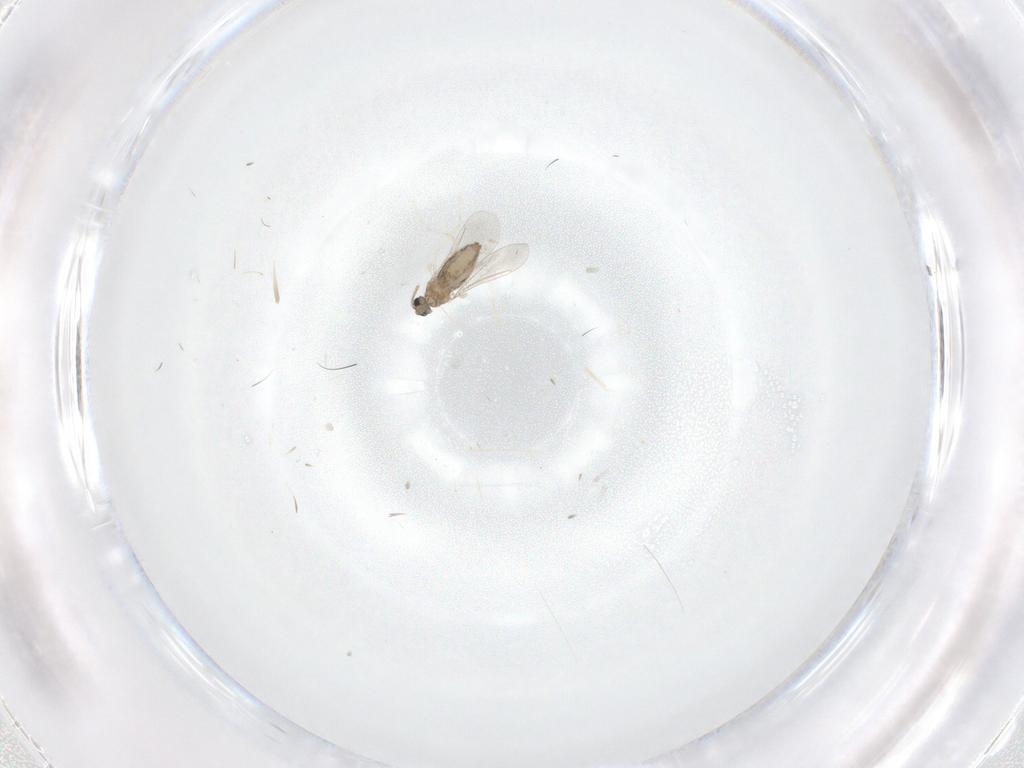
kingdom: Animalia
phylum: Arthropoda
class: Insecta
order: Diptera
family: Cecidomyiidae
